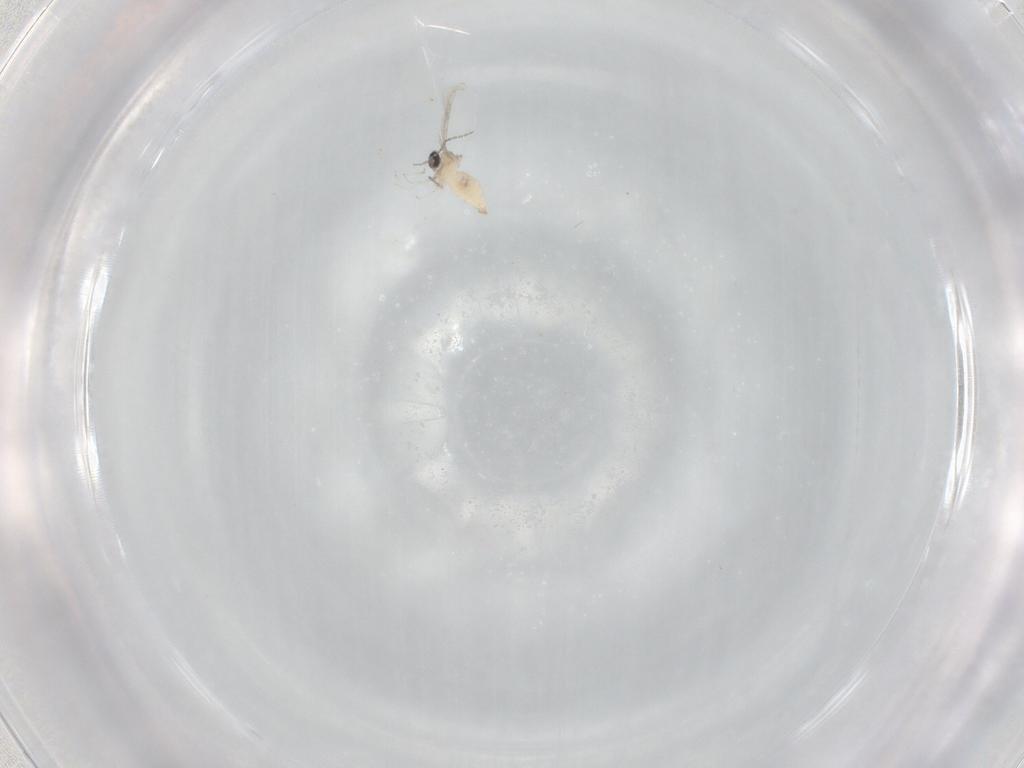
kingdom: Animalia
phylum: Arthropoda
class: Insecta
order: Diptera
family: Cecidomyiidae
